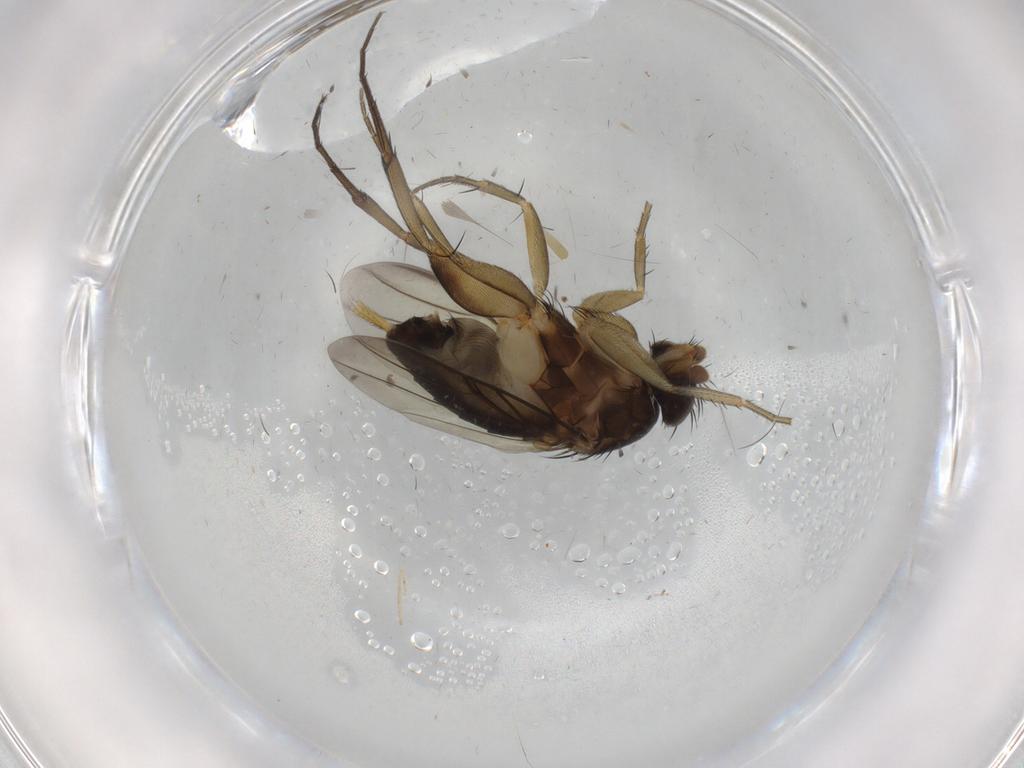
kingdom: Animalia
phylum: Arthropoda
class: Insecta
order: Diptera
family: Phoridae
